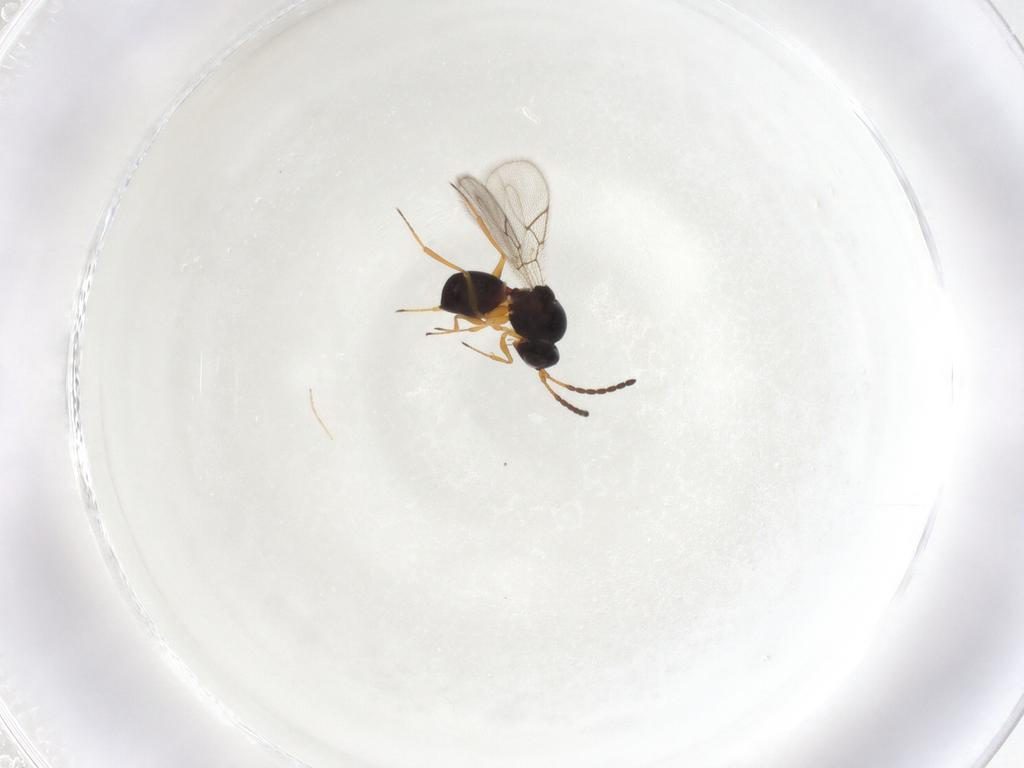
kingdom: Animalia
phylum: Arthropoda
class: Insecta
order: Hymenoptera
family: Figitidae
